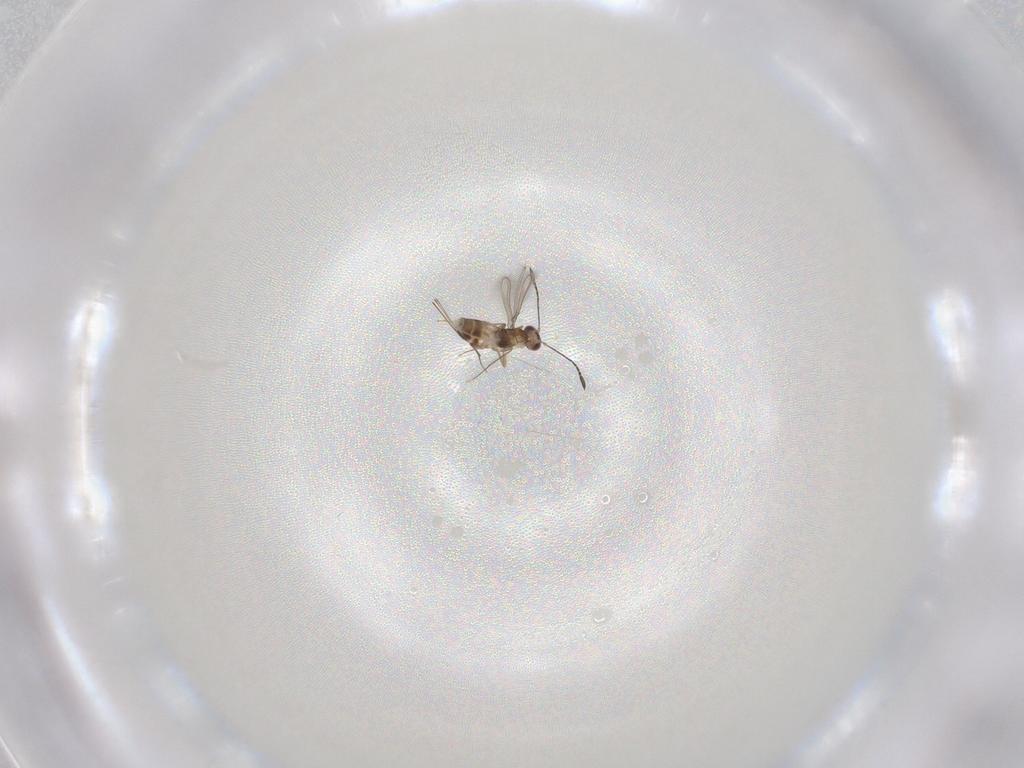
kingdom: Animalia
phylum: Arthropoda
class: Insecta
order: Hymenoptera
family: Mymaridae
